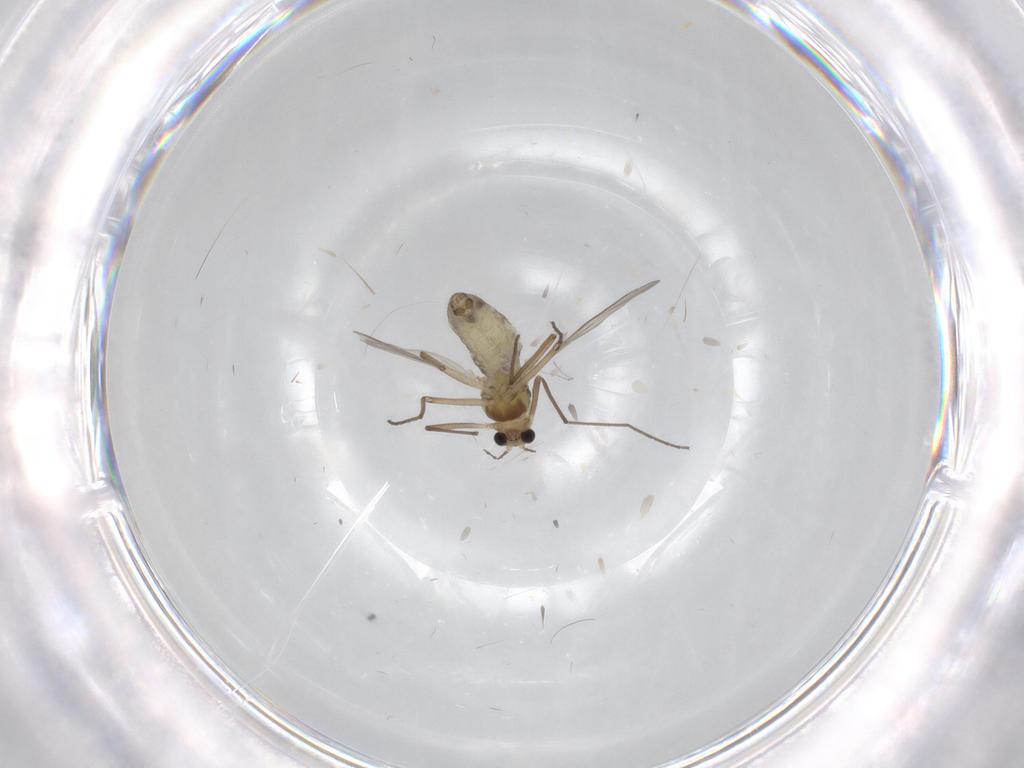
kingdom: Animalia
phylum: Arthropoda
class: Insecta
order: Diptera
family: Chironomidae
